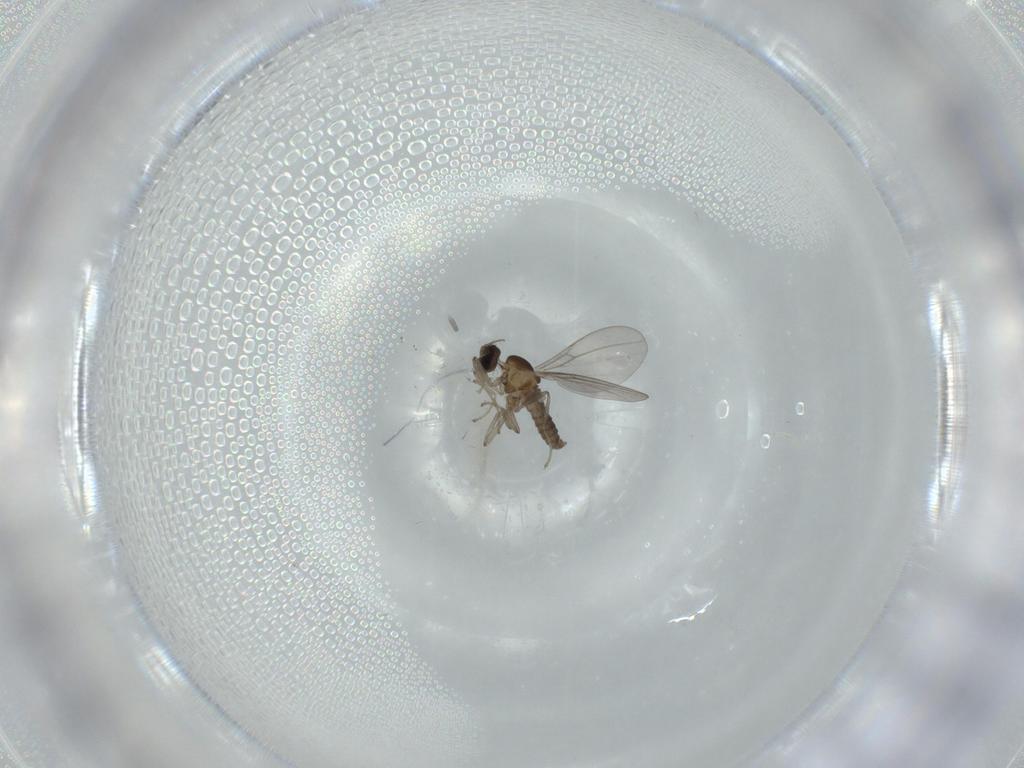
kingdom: Animalia
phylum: Arthropoda
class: Insecta
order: Diptera
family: Cecidomyiidae
